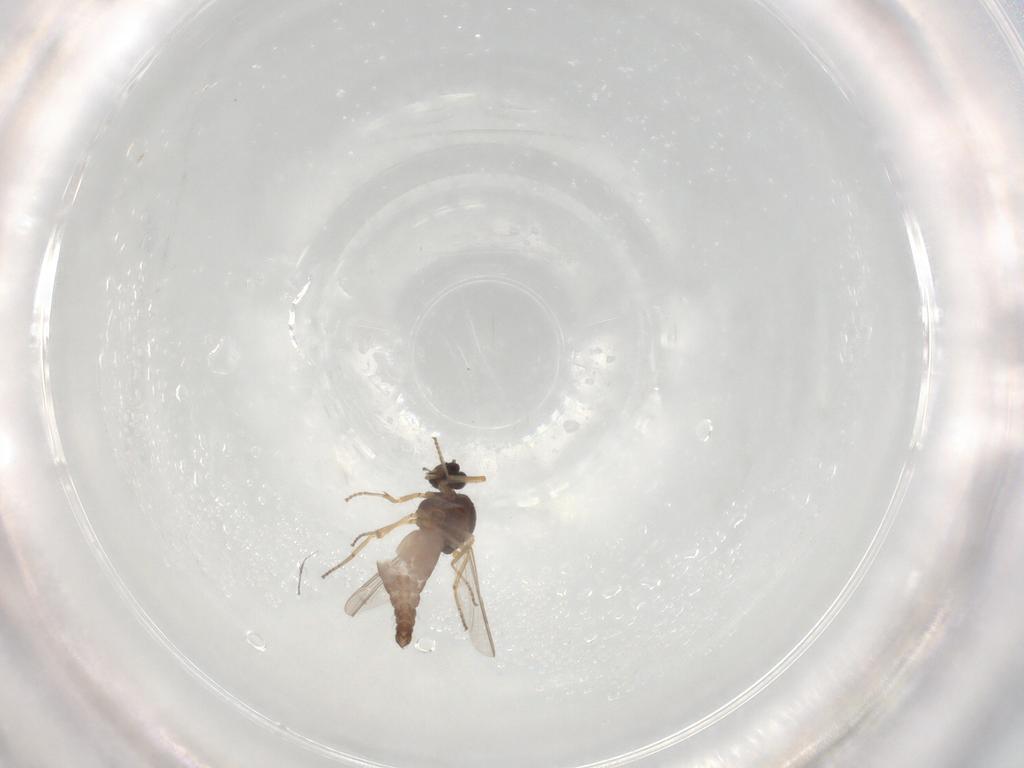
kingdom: Animalia
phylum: Arthropoda
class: Insecta
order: Diptera
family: Ceratopogonidae
